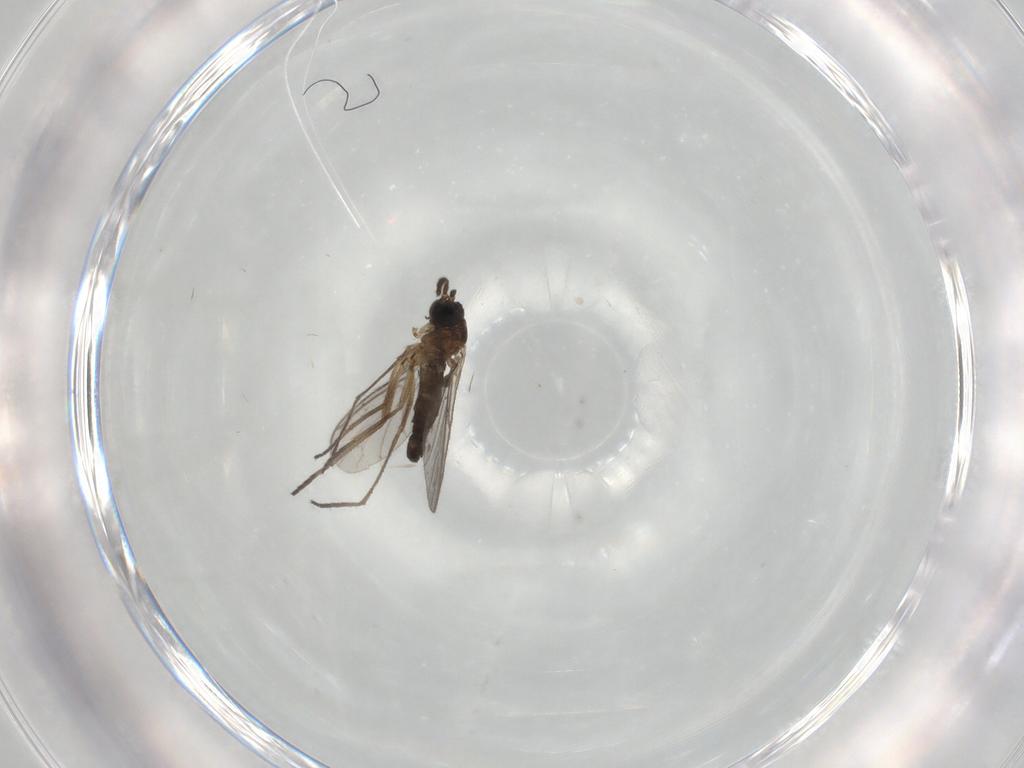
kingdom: Animalia
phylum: Arthropoda
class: Insecta
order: Diptera
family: Sciaridae
